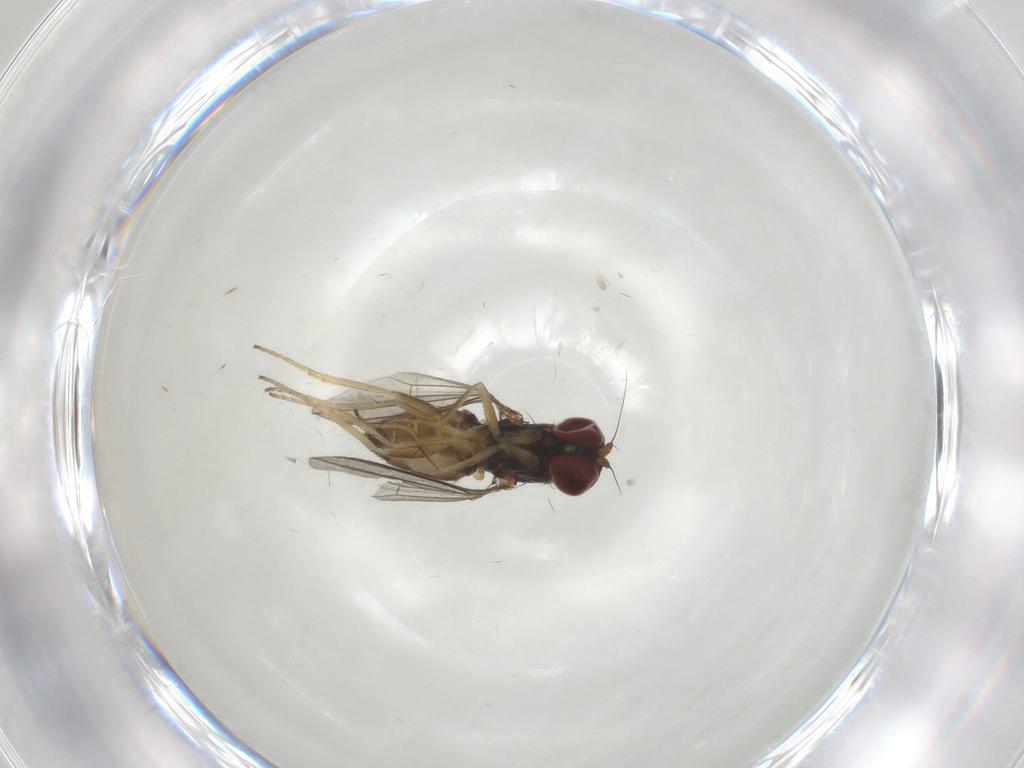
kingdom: Animalia
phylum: Arthropoda
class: Insecta
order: Diptera
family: Dolichopodidae
